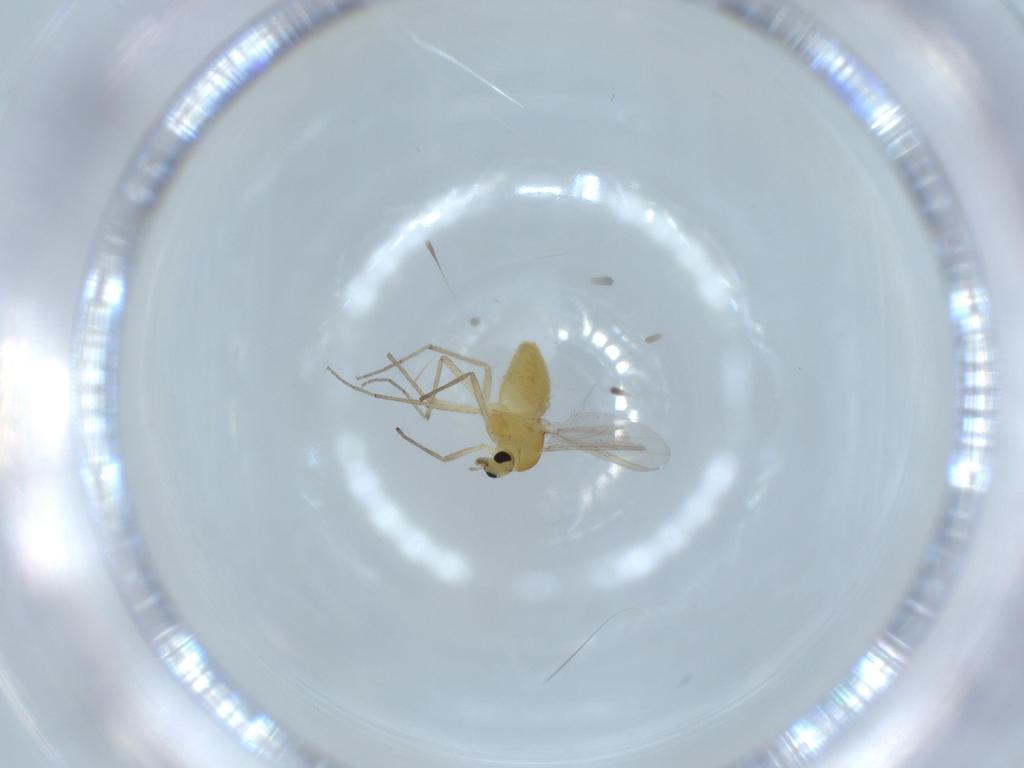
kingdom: Animalia
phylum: Arthropoda
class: Insecta
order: Diptera
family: Chironomidae
